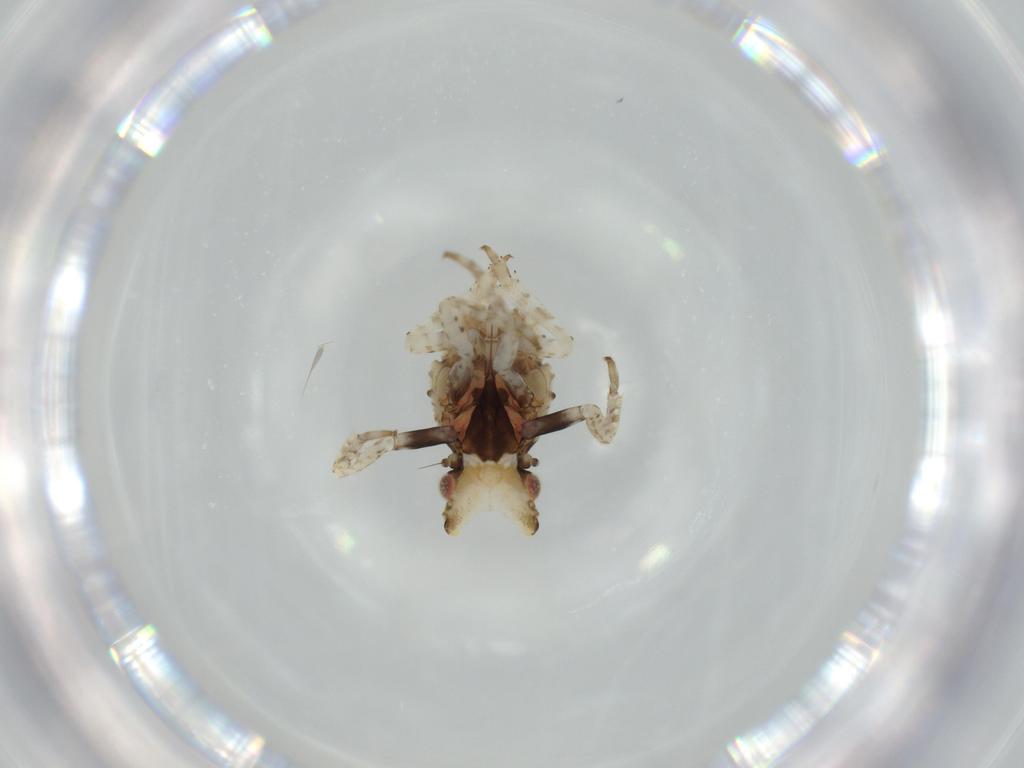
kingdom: Animalia
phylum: Arthropoda
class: Insecta
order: Hemiptera
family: Fulgoridae
